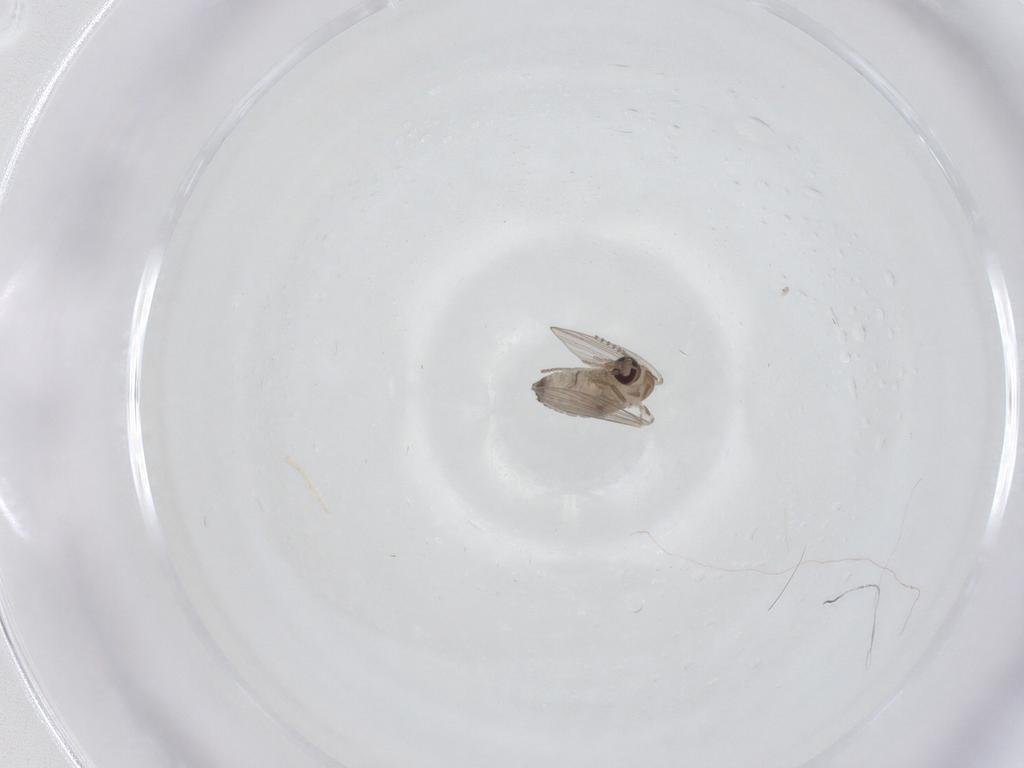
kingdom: Animalia
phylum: Arthropoda
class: Insecta
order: Diptera
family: Psychodidae
